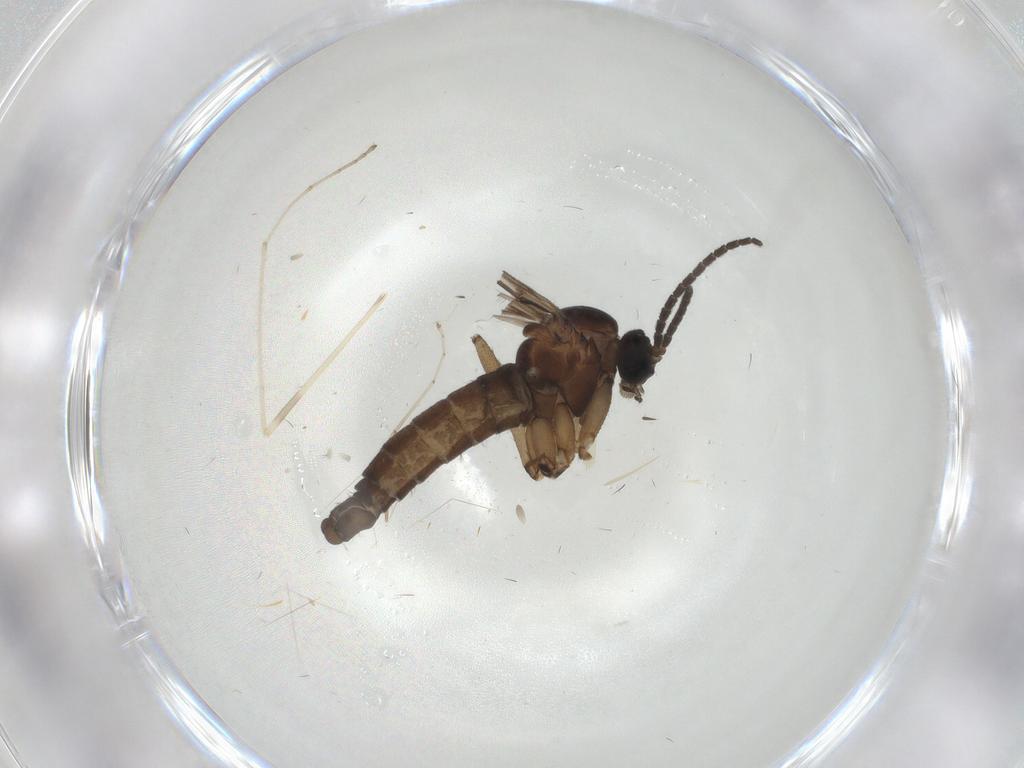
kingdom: Animalia
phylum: Arthropoda
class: Insecta
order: Diptera
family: Sciaridae
